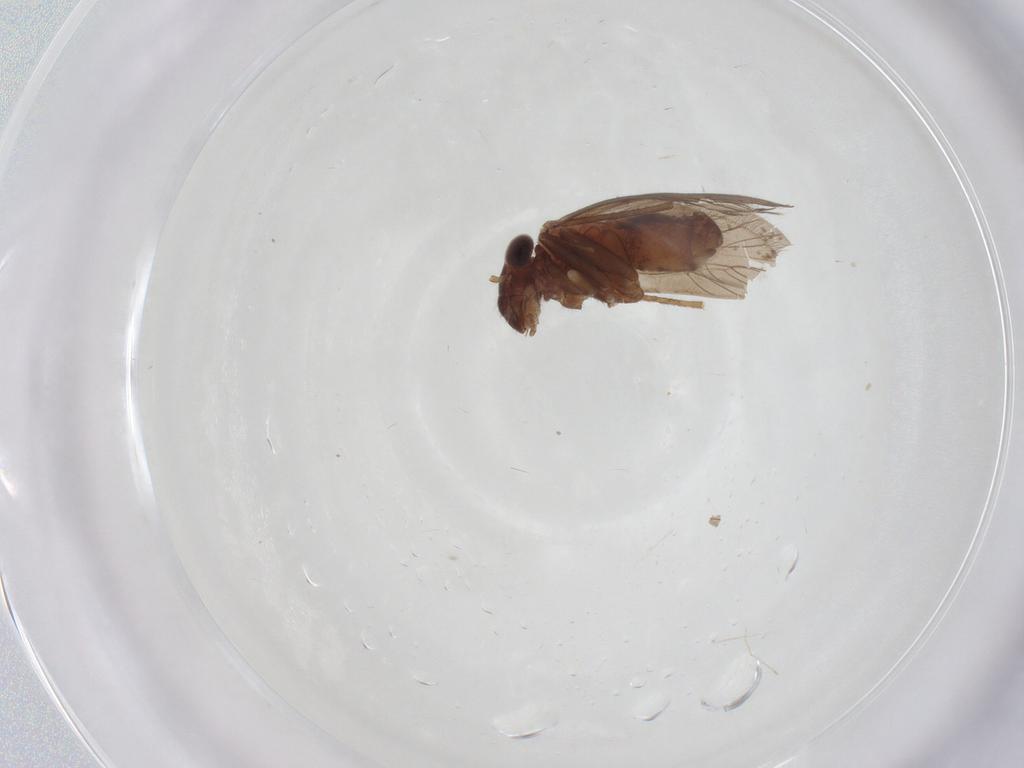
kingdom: Animalia
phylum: Arthropoda
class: Insecta
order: Psocodea
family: Lepidopsocidae
